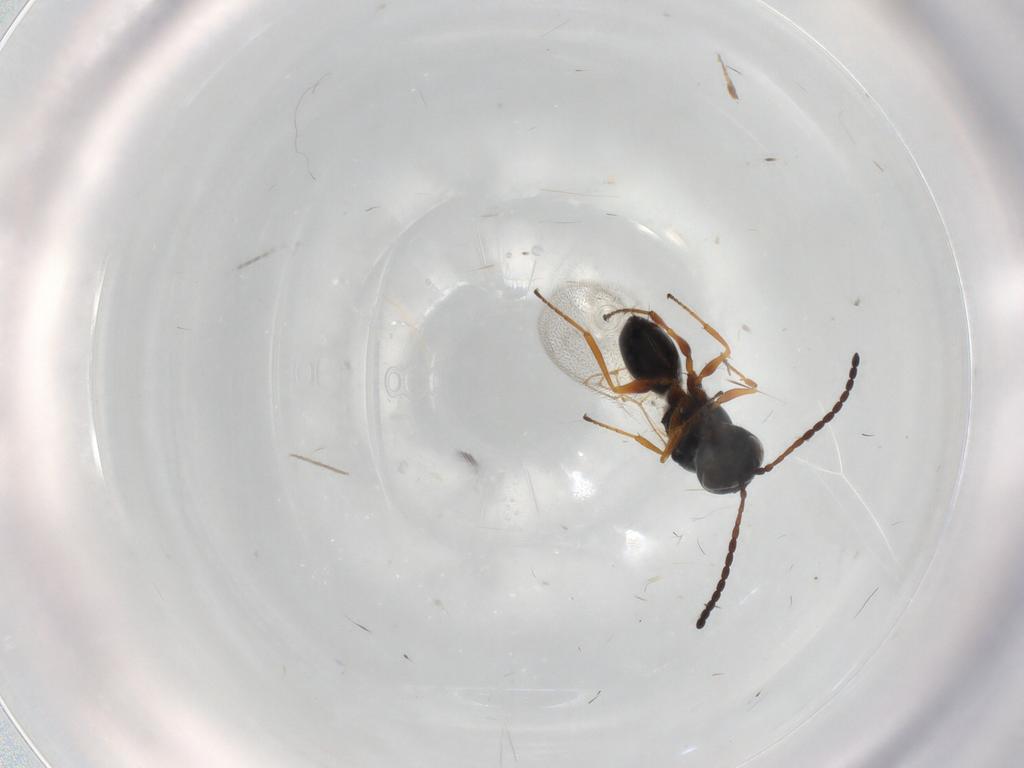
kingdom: Animalia
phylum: Arthropoda
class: Insecta
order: Hymenoptera
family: Figitidae
